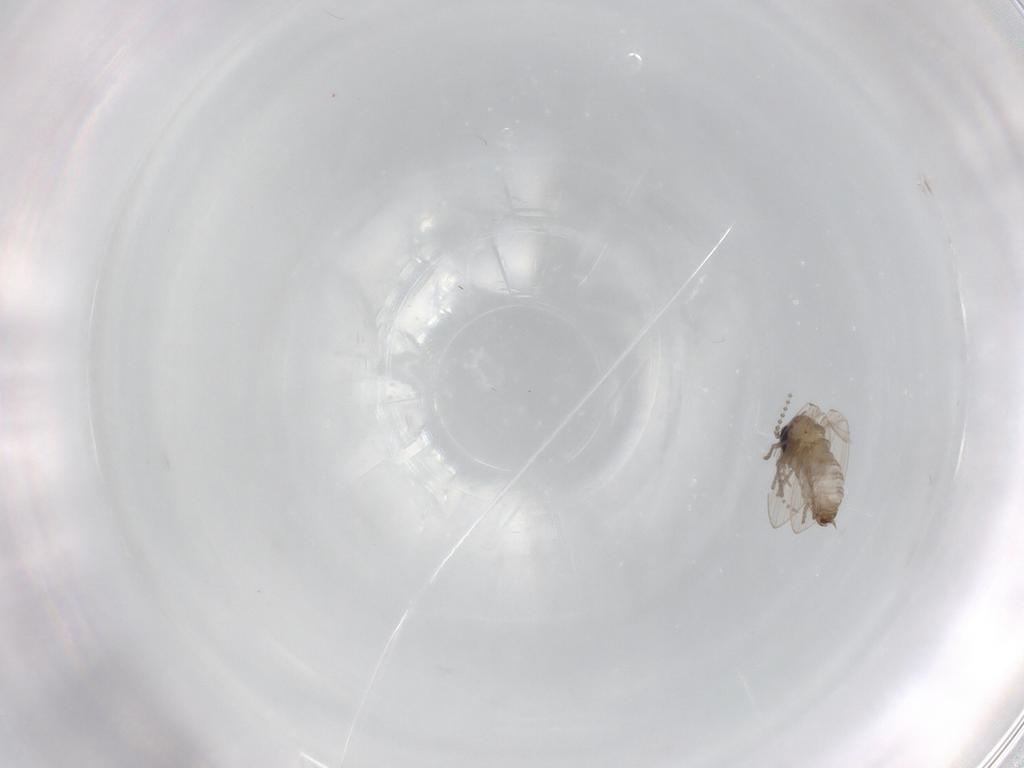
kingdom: Animalia
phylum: Arthropoda
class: Insecta
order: Diptera
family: Psychodidae
